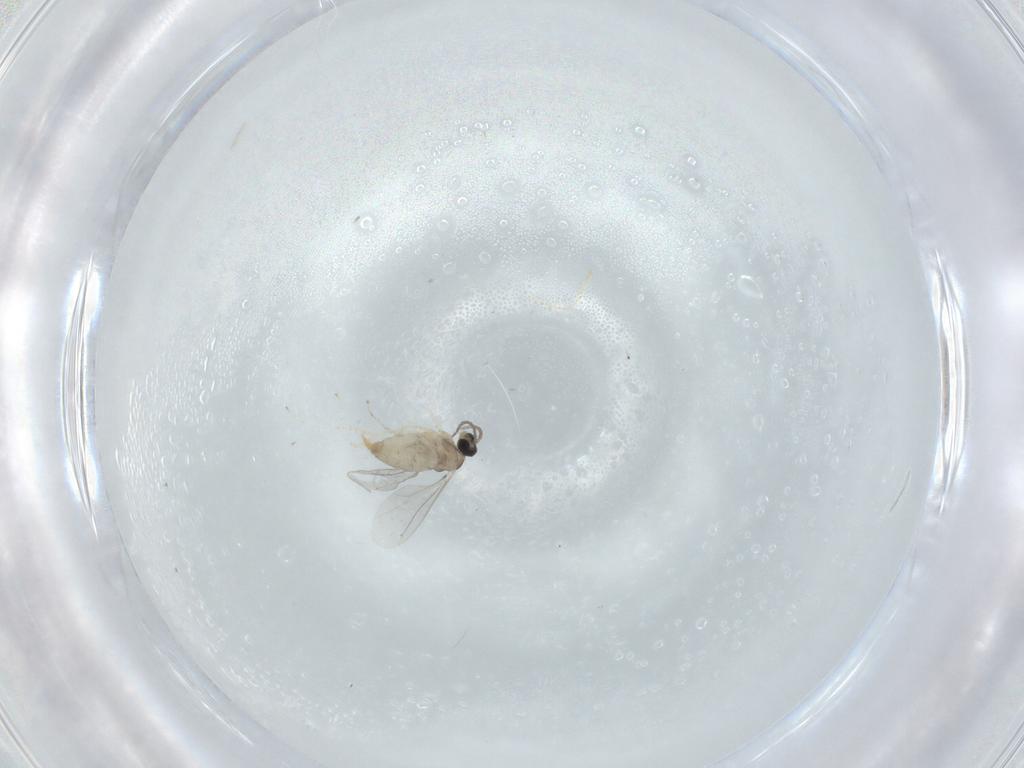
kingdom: Animalia
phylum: Arthropoda
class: Insecta
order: Diptera
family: Cecidomyiidae
